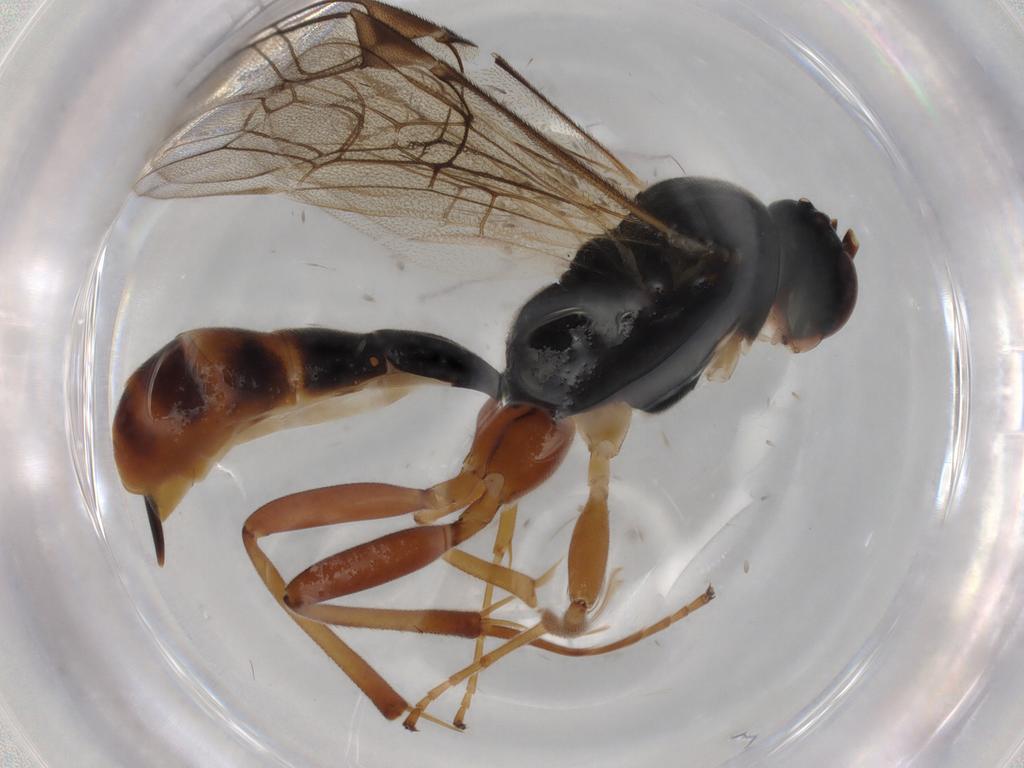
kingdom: Animalia
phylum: Arthropoda
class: Insecta
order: Hymenoptera
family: Ichneumonidae
